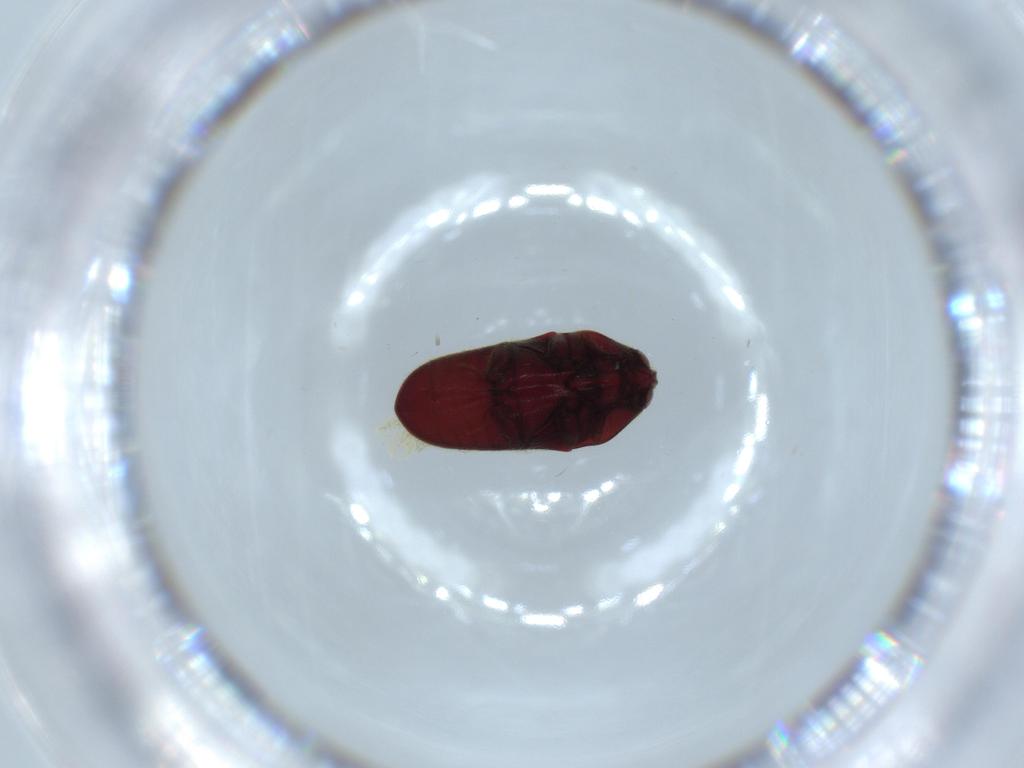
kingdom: Animalia
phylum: Arthropoda
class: Insecta
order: Coleoptera
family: Throscidae
